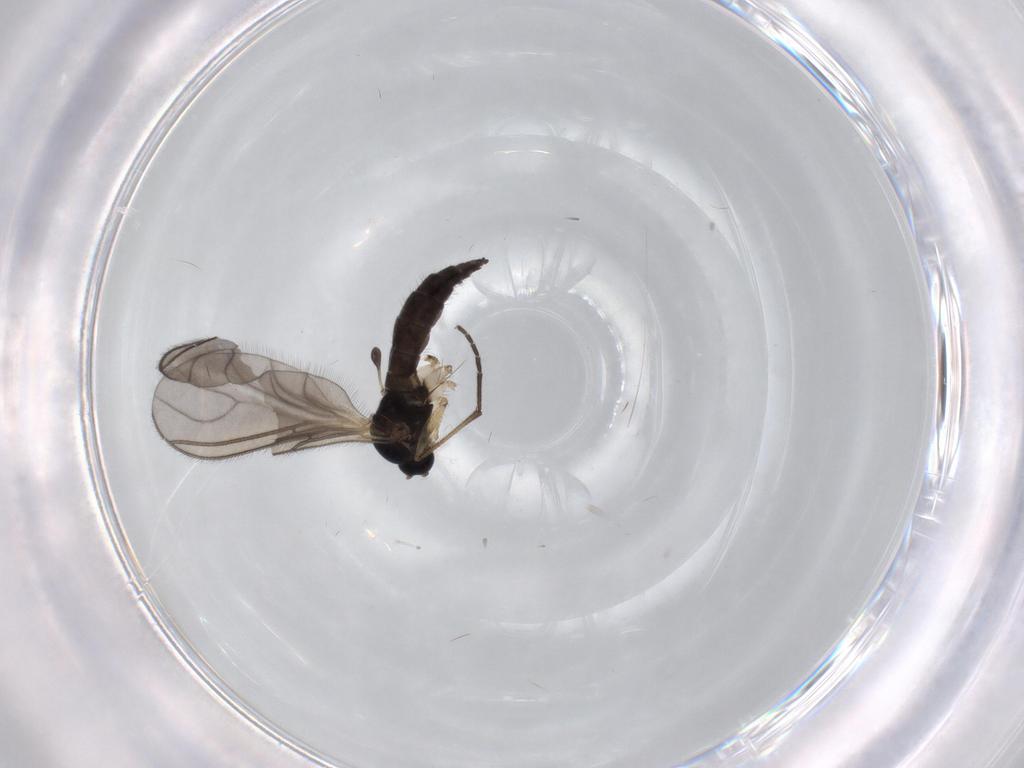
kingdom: Animalia
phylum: Arthropoda
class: Insecta
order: Diptera
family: Sciaridae
